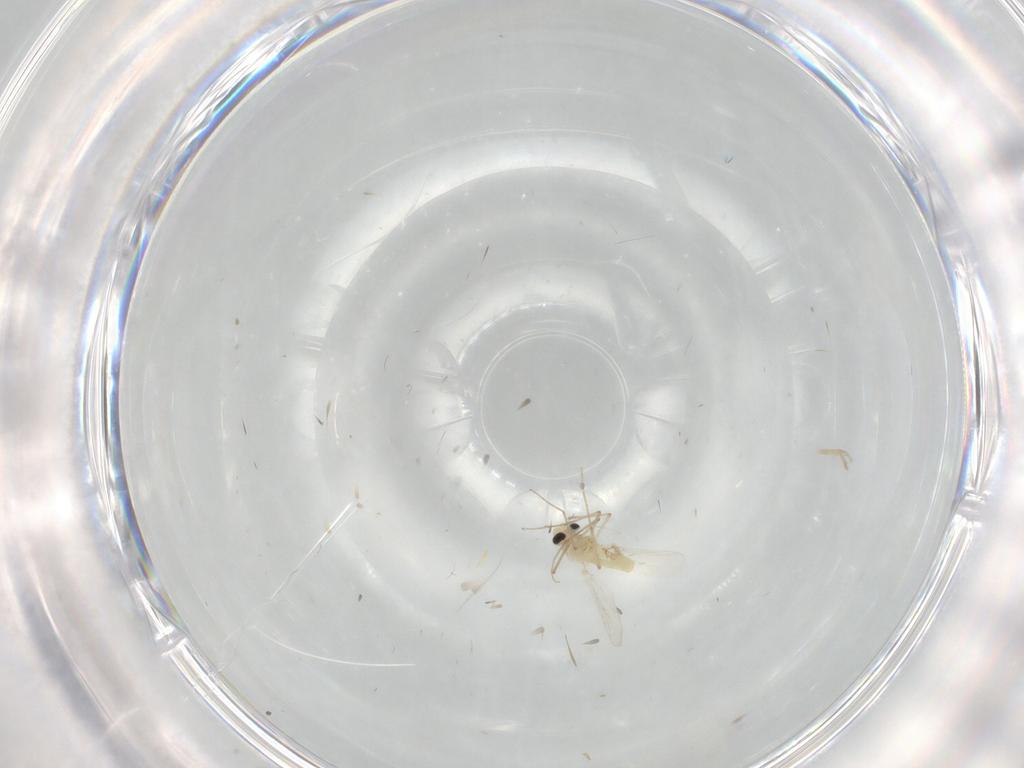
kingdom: Animalia
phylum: Arthropoda
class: Insecta
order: Diptera
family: Chironomidae
